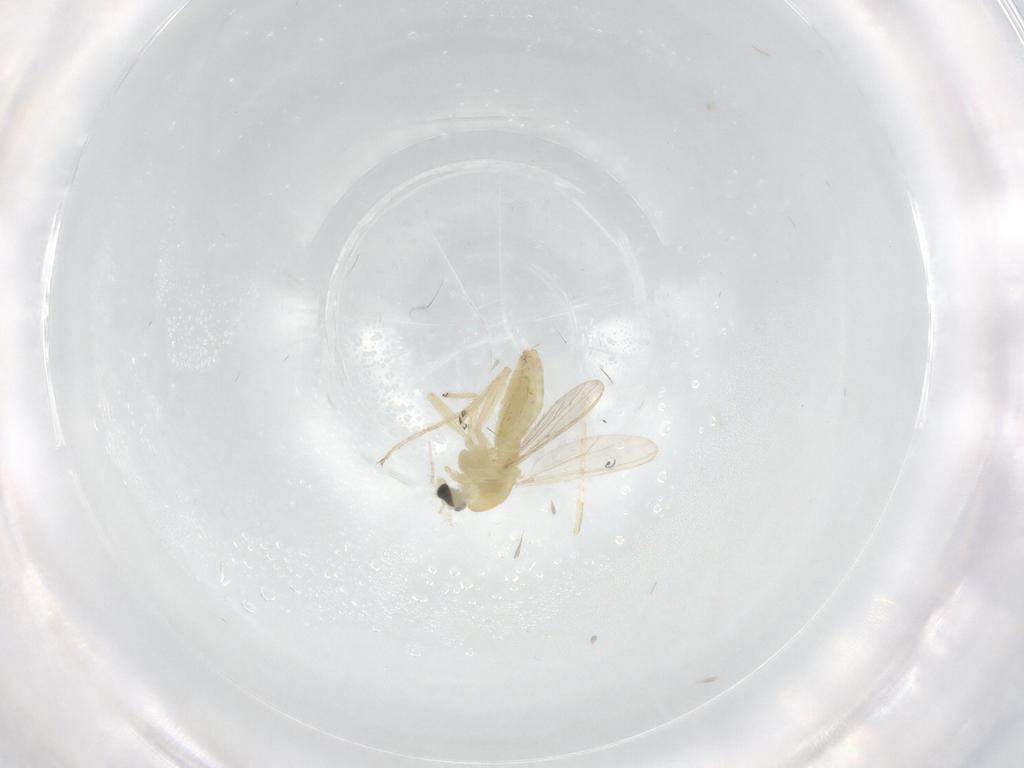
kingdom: Animalia
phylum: Arthropoda
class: Insecta
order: Diptera
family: Chironomidae
